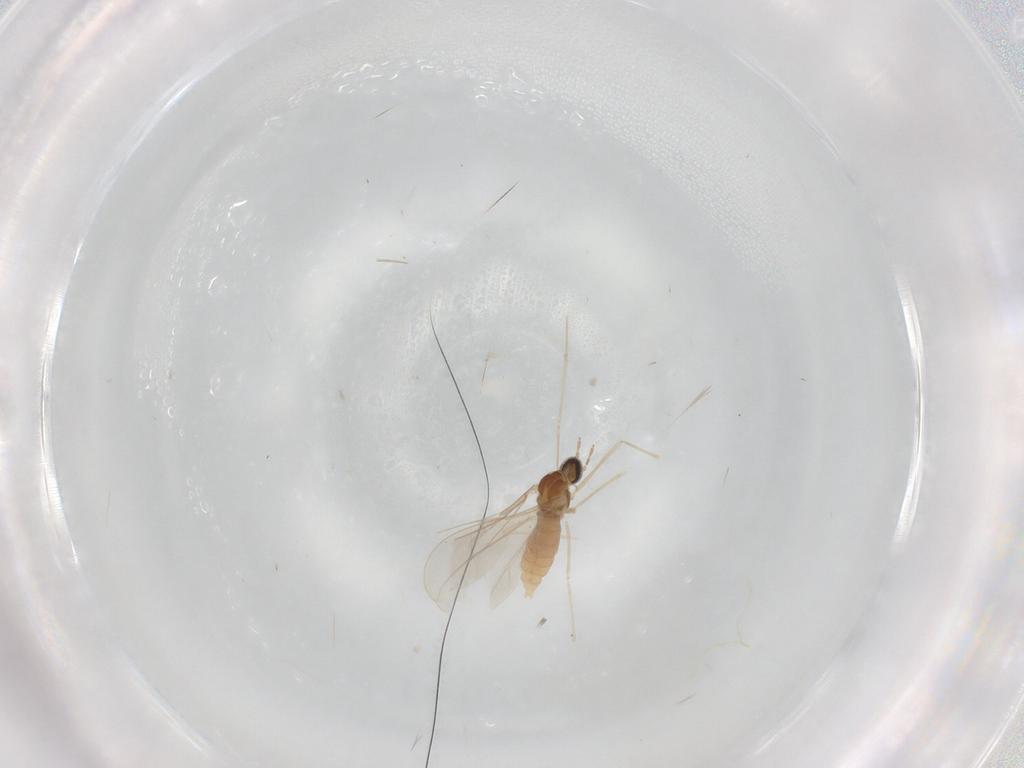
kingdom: Animalia
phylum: Arthropoda
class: Insecta
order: Diptera
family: Cecidomyiidae
